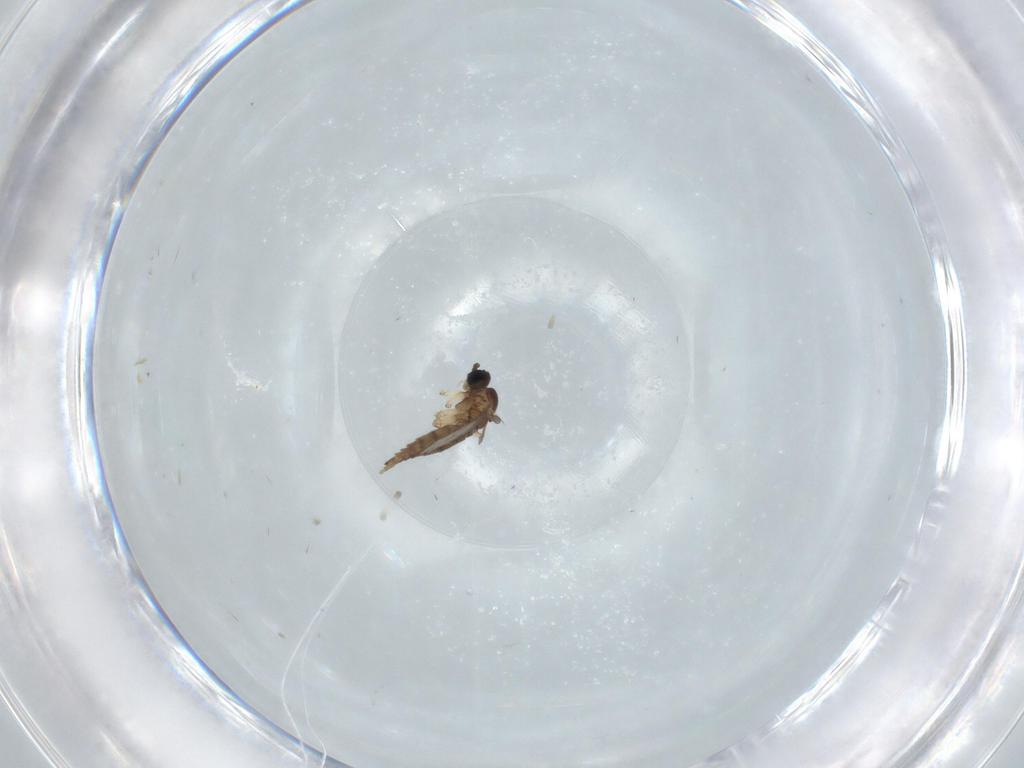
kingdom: Animalia
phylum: Arthropoda
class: Insecta
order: Diptera
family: Sciaridae
